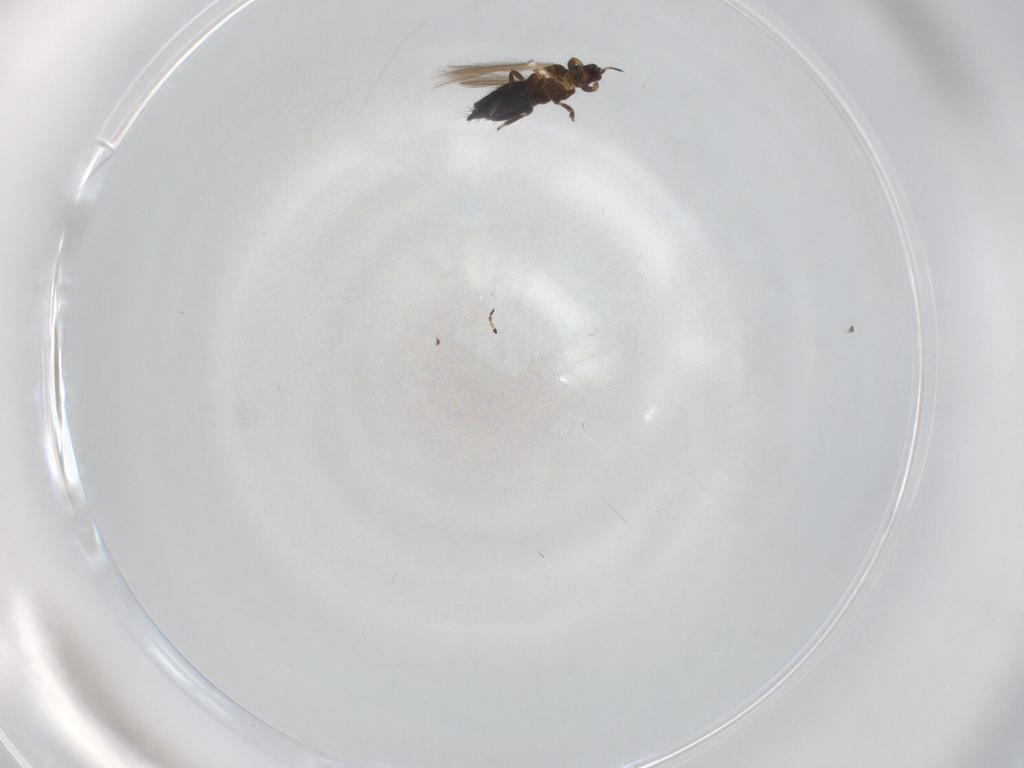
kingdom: Animalia
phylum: Arthropoda
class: Insecta
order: Thysanoptera
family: Thripidae
